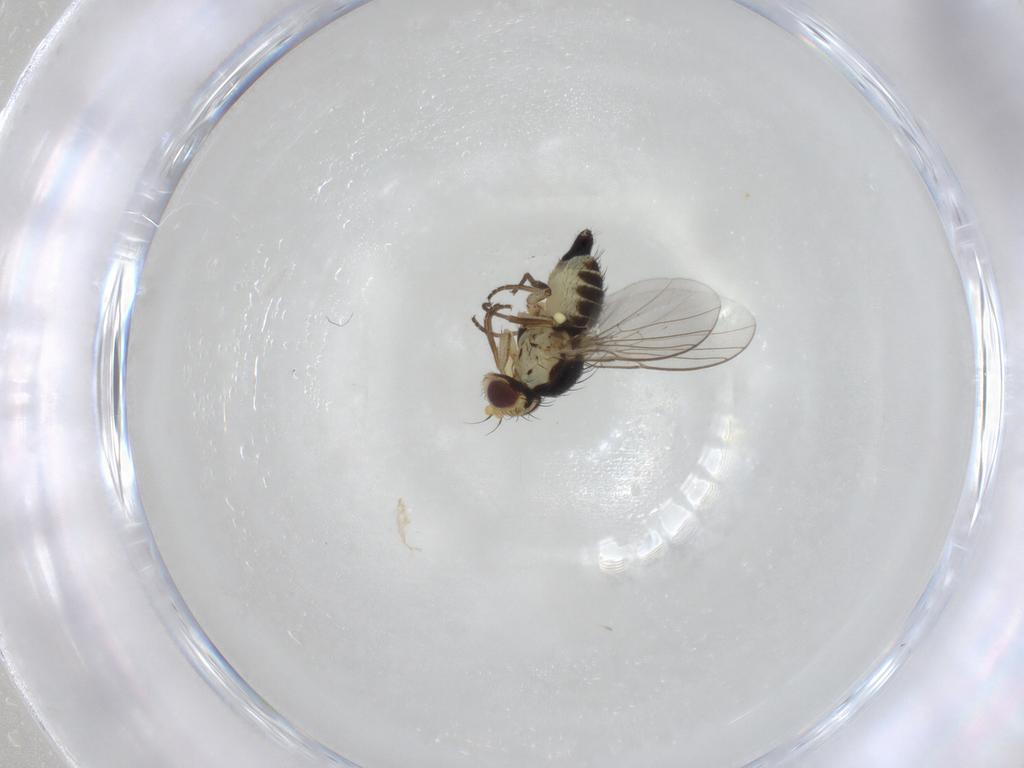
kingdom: Animalia
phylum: Arthropoda
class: Insecta
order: Diptera
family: Agromyzidae
